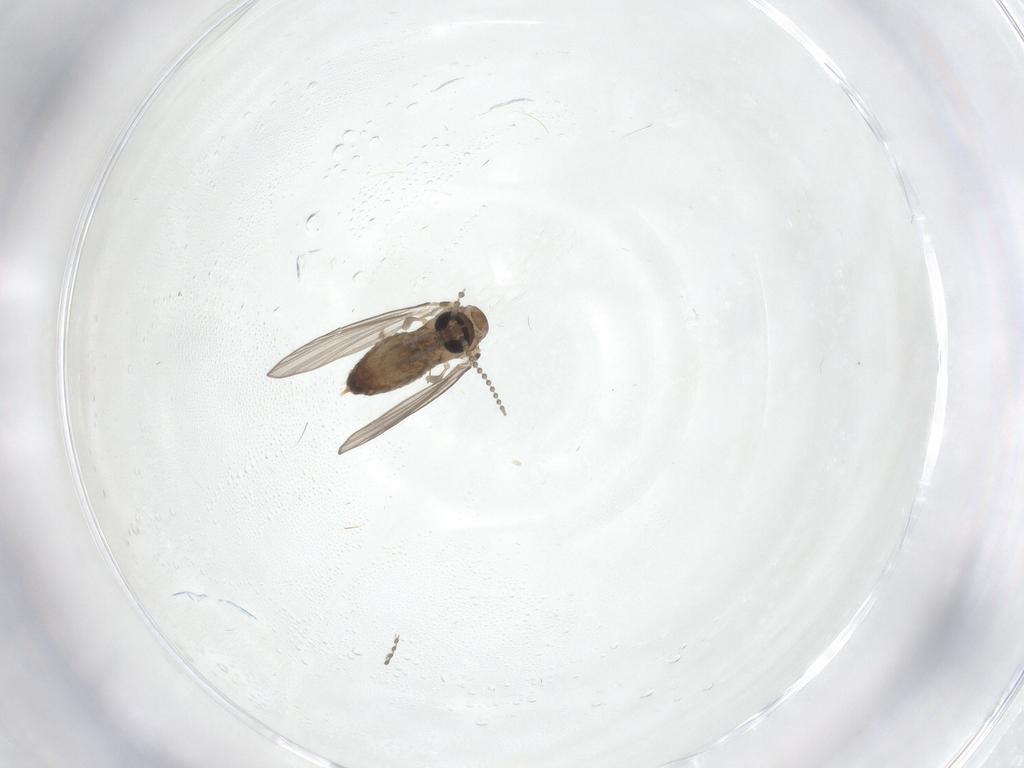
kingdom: Animalia
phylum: Arthropoda
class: Insecta
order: Diptera
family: Psychodidae
